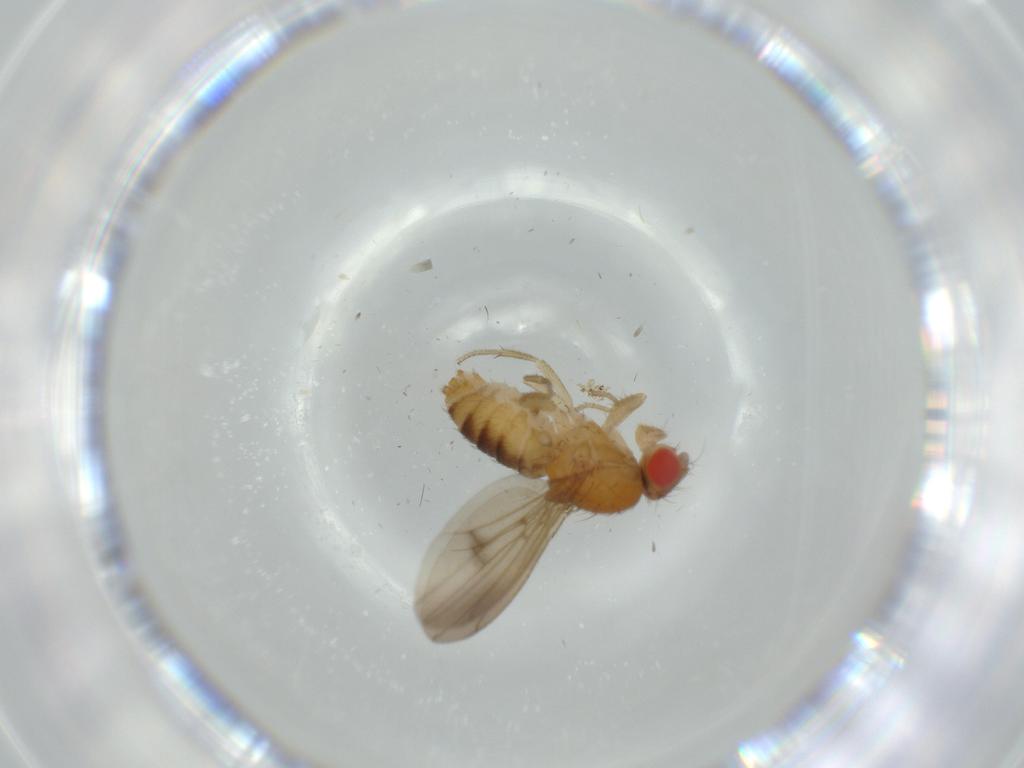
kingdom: Animalia
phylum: Arthropoda
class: Insecta
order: Diptera
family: Drosophilidae
